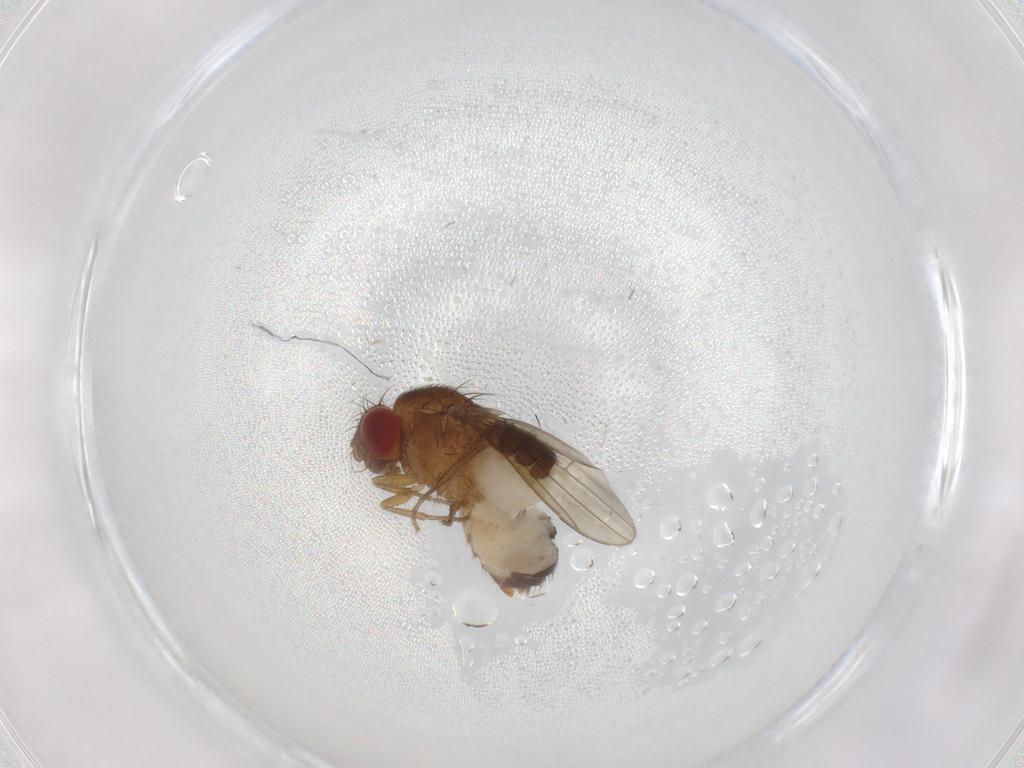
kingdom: Animalia
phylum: Arthropoda
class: Insecta
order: Diptera
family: Drosophilidae
